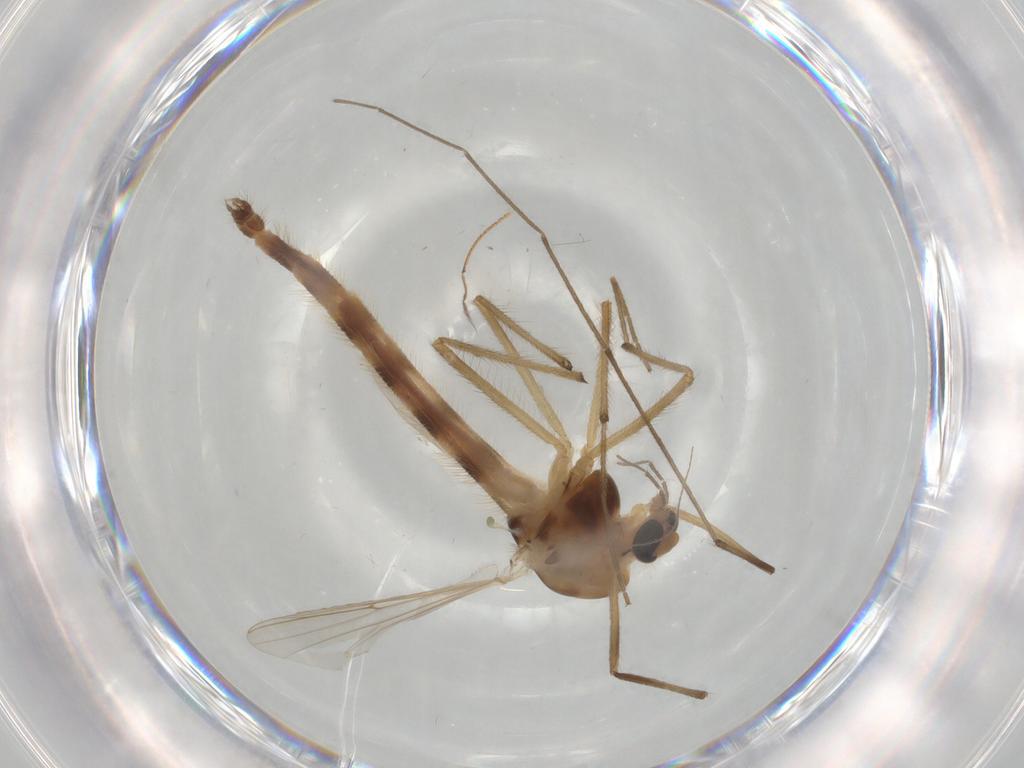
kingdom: Animalia
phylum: Arthropoda
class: Insecta
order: Diptera
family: Chironomidae
